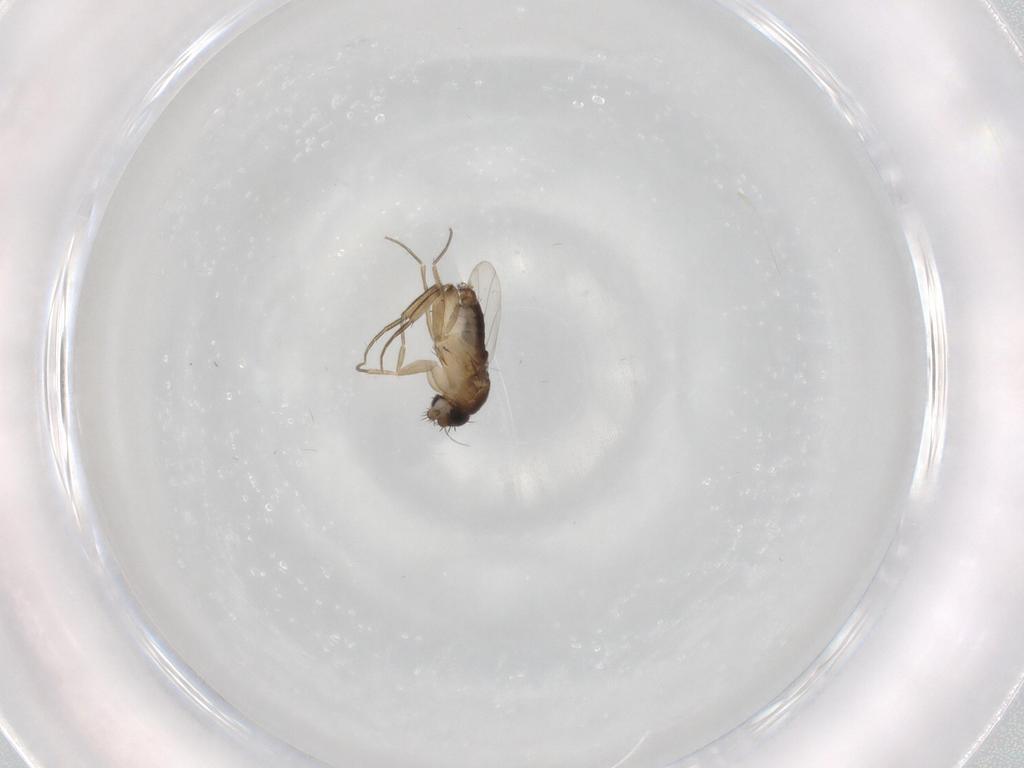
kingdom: Animalia
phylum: Arthropoda
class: Insecta
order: Diptera
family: Phoridae
